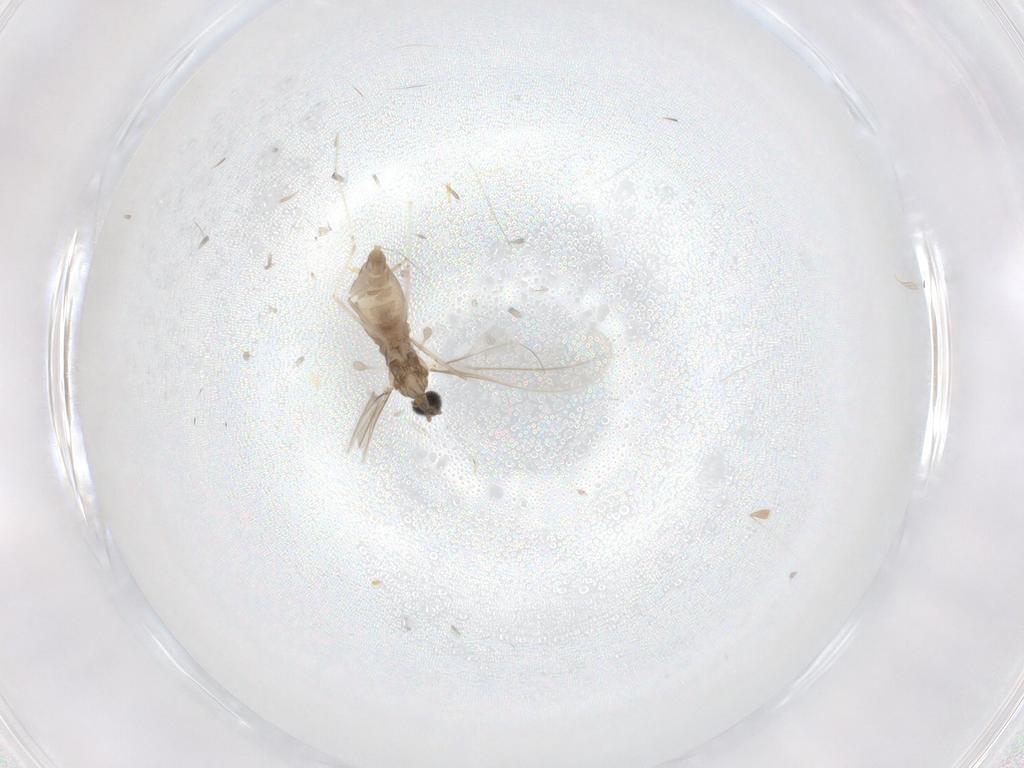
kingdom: Animalia
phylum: Arthropoda
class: Insecta
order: Diptera
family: Cecidomyiidae
